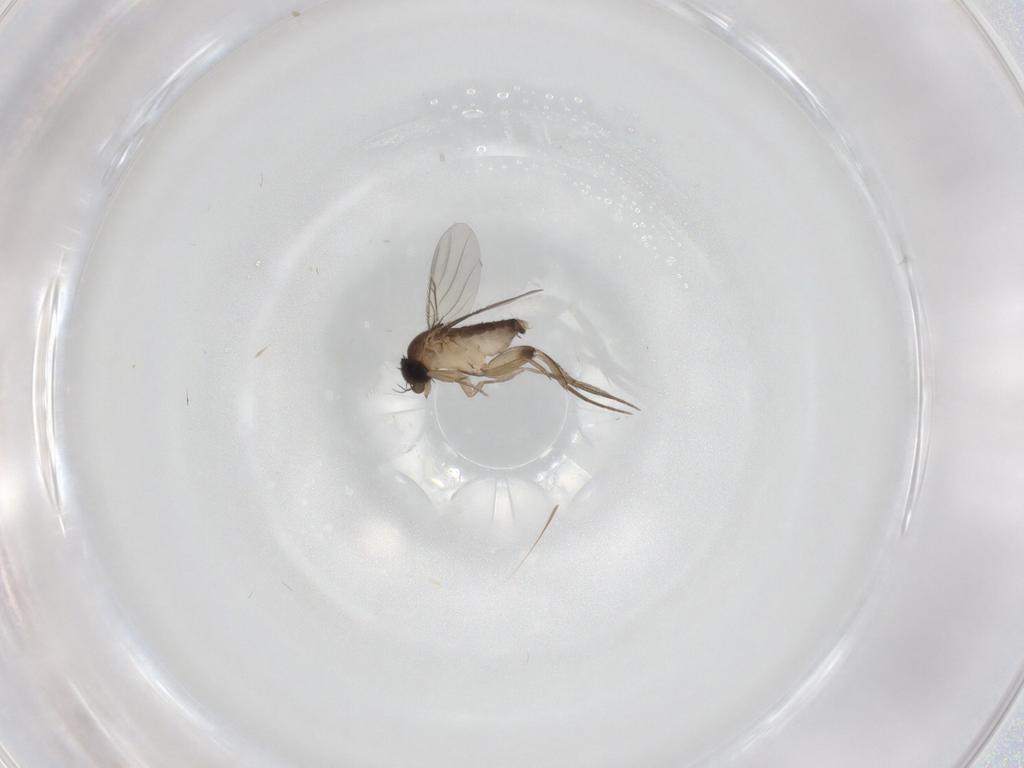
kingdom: Animalia
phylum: Arthropoda
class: Insecta
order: Diptera
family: Phoridae
